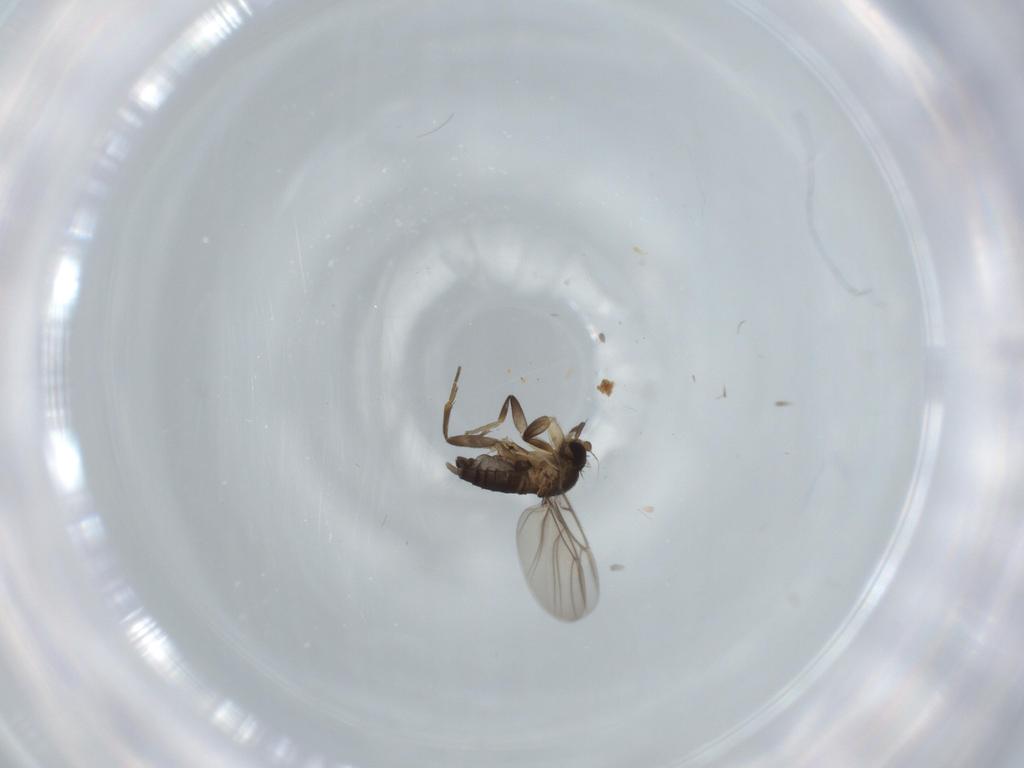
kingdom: Animalia
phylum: Arthropoda
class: Insecta
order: Diptera
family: Phoridae
